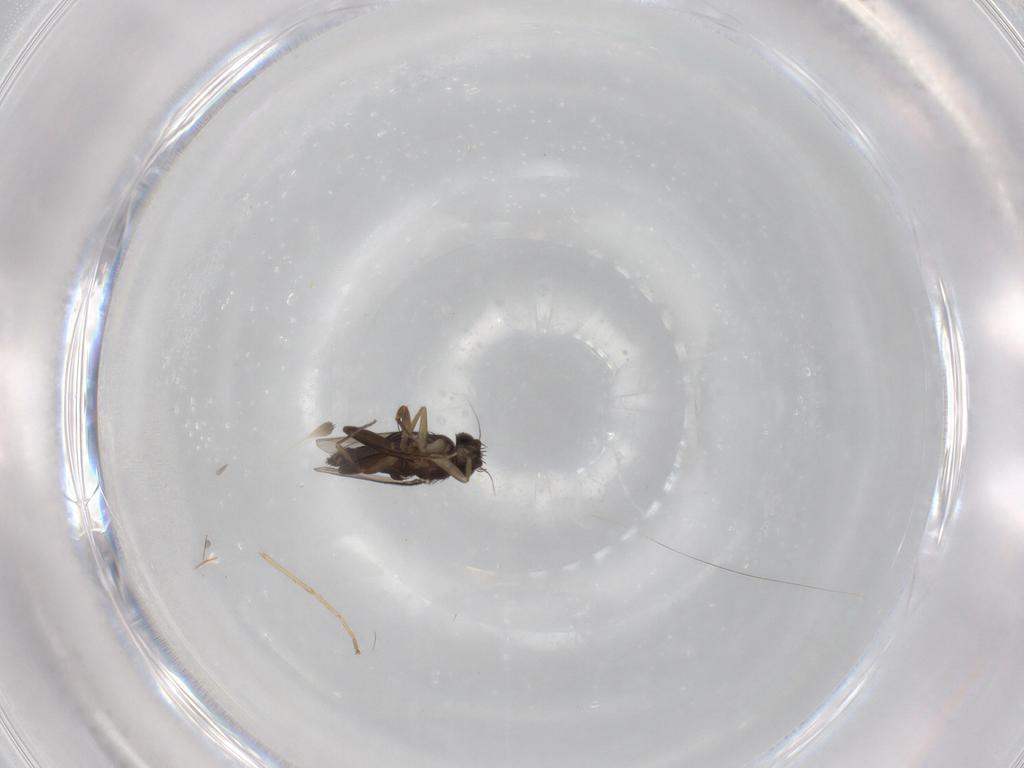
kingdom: Animalia
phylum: Arthropoda
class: Insecta
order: Diptera
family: Phoridae
